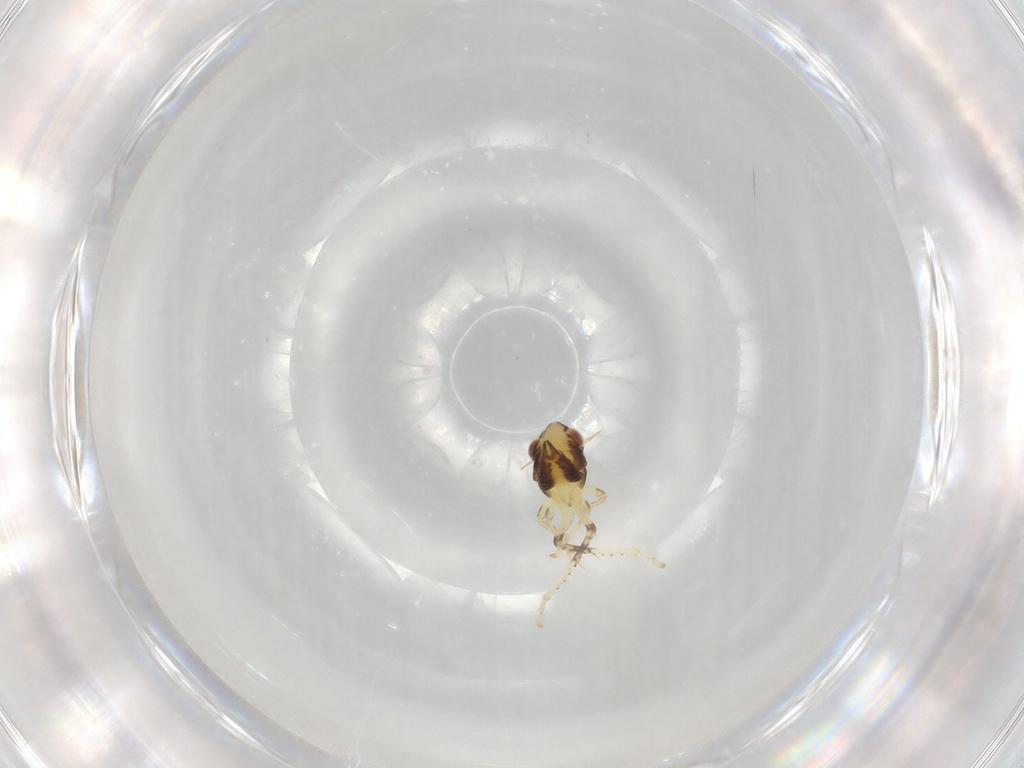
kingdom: Animalia
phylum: Arthropoda
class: Insecta
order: Hemiptera
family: Cicadellidae
